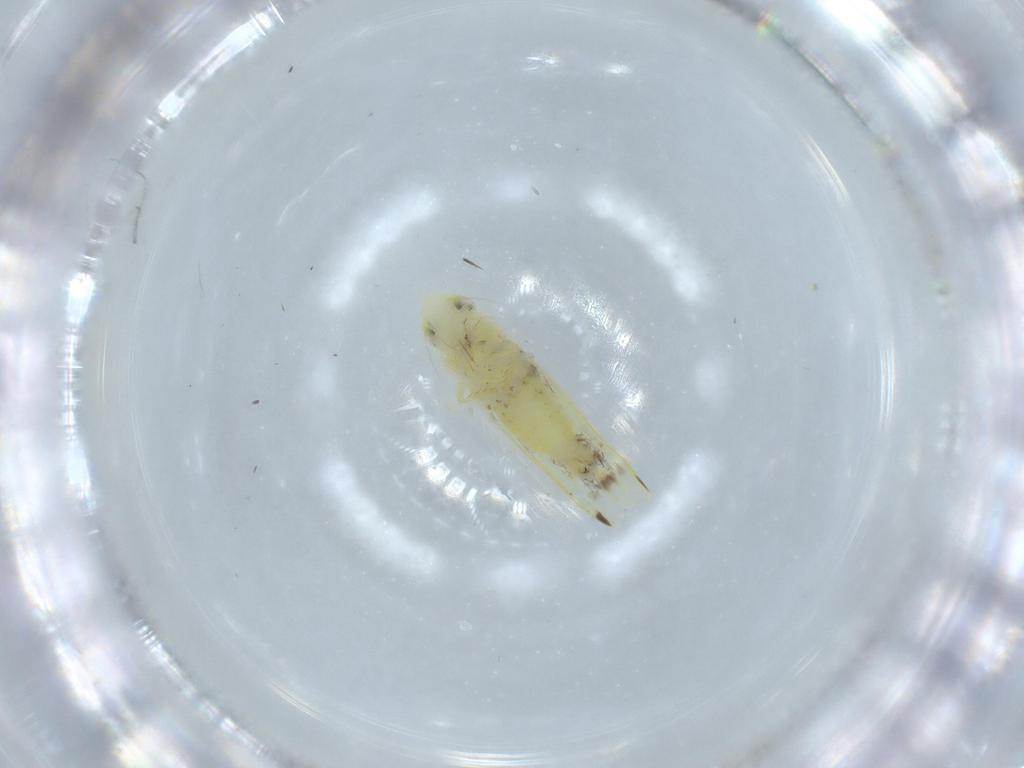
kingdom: Animalia
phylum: Arthropoda
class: Insecta
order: Hemiptera
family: Cicadellidae
